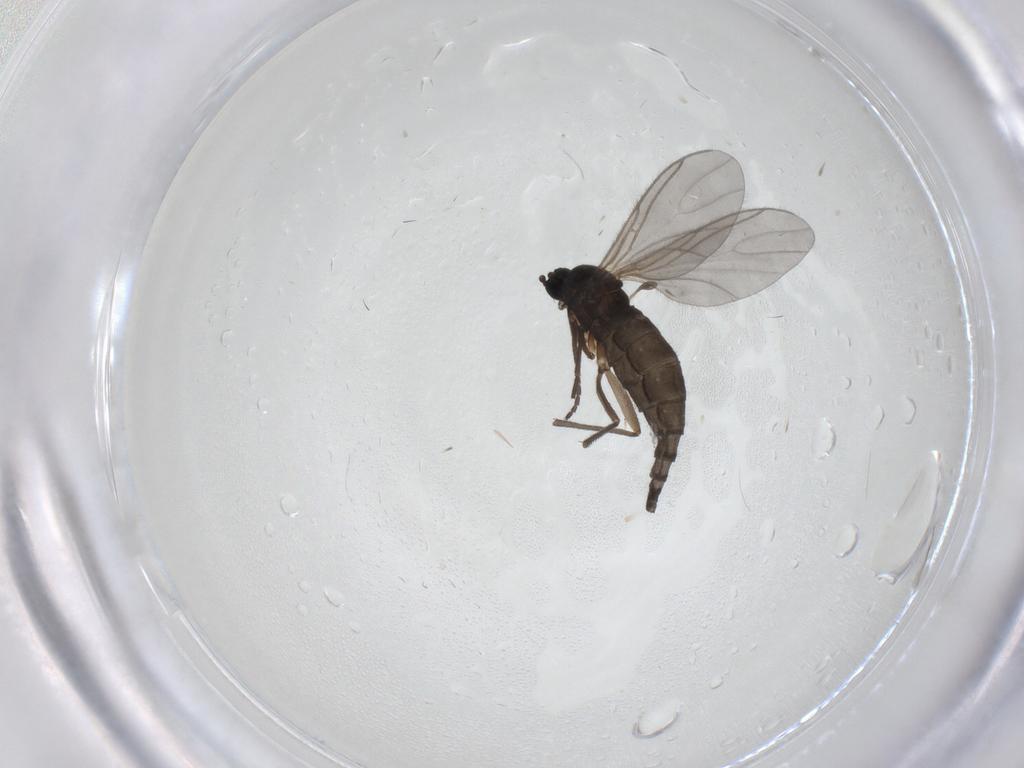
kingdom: Animalia
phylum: Arthropoda
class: Insecta
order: Diptera
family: Sciaridae
